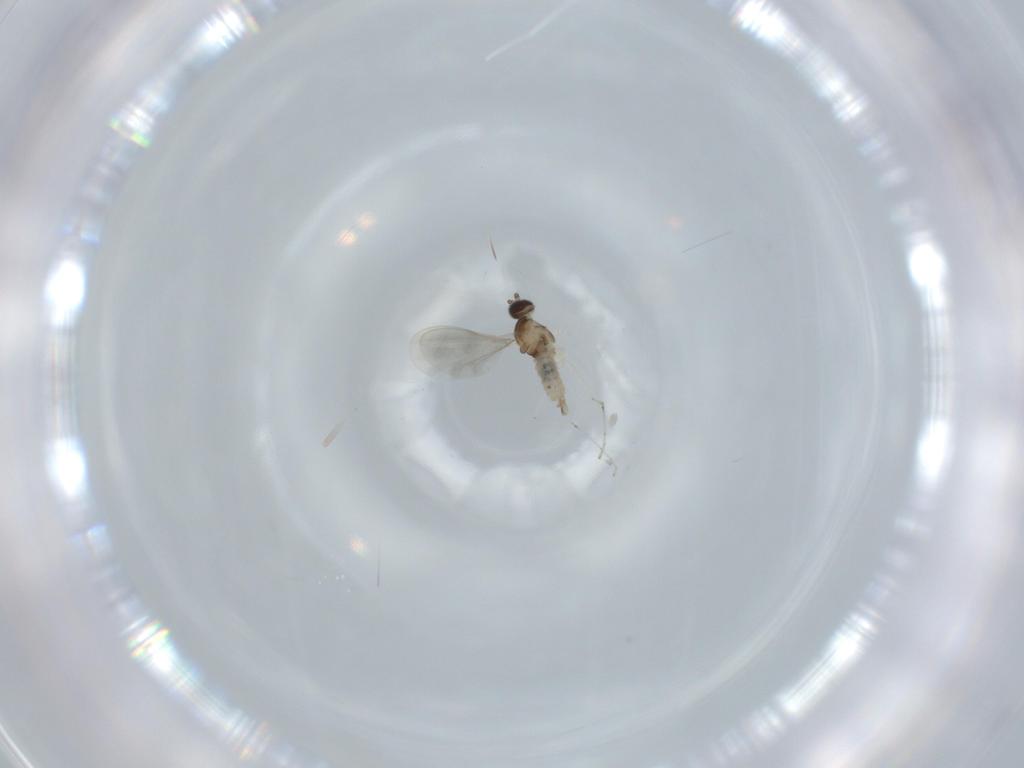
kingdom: Animalia
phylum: Arthropoda
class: Insecta
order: Diptera
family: Cecidomyiidae
